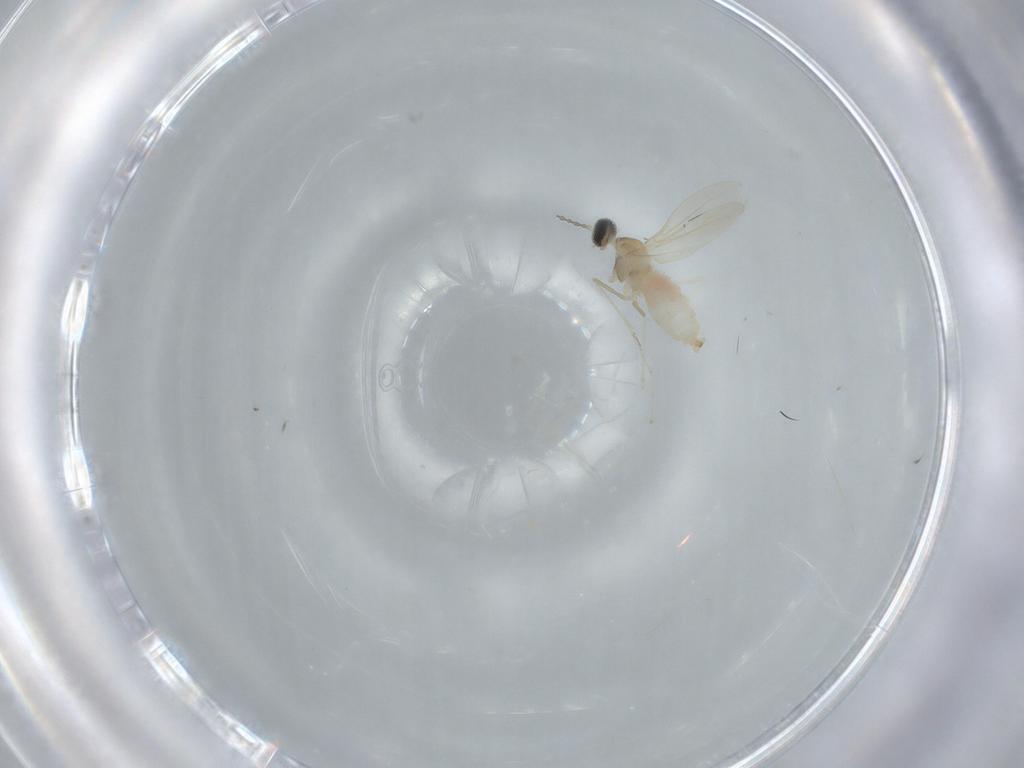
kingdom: Animalia
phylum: Arthropoda
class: Insecta
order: Diptera
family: Cecidomyiidae
